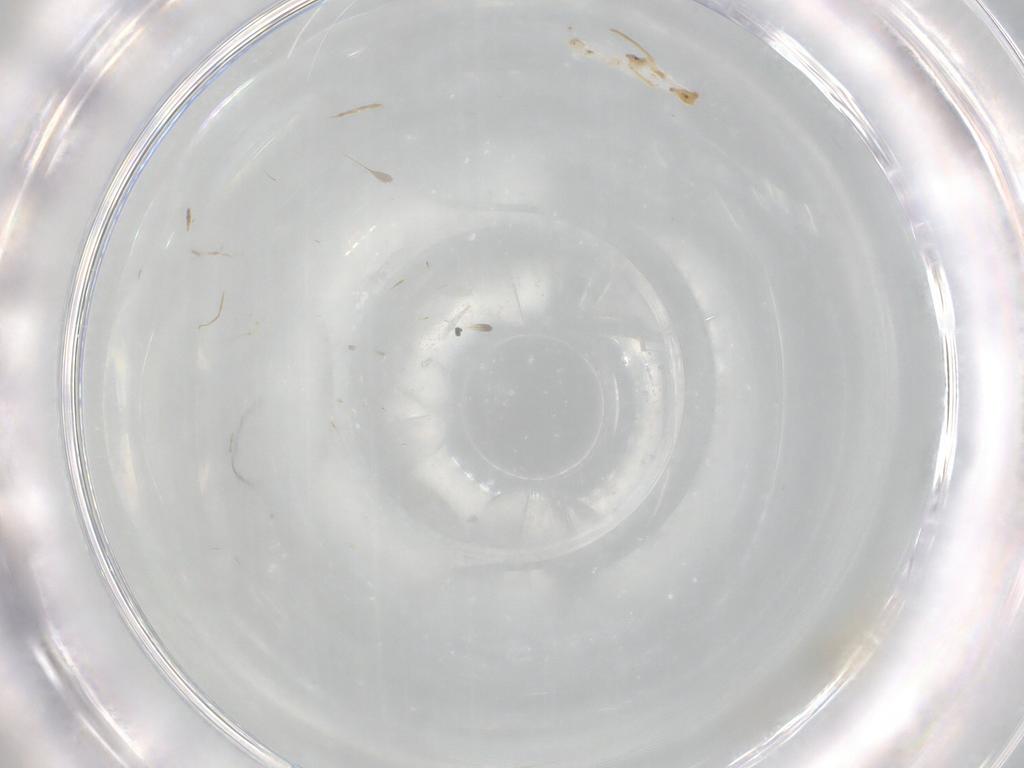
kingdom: Animalia
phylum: Arthropoda
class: Insecta
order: Diptera
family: Cecidomyiidae
